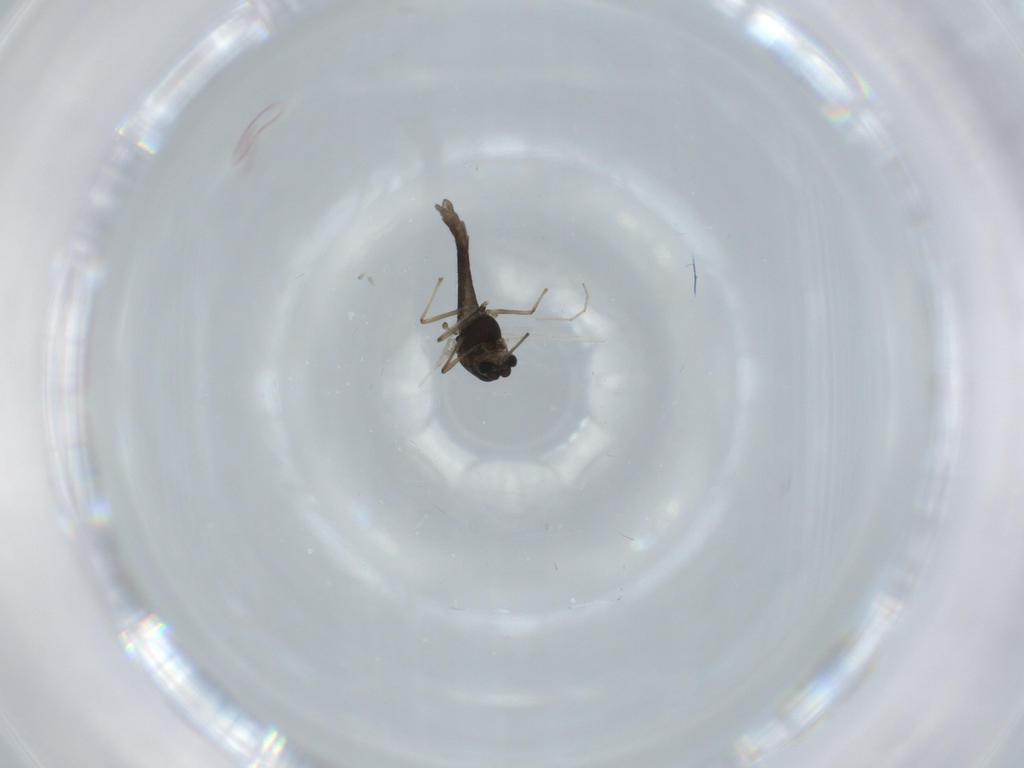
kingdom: Animalia
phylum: Arthropoda
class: Insecta
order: Diptera
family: Chironomidae
